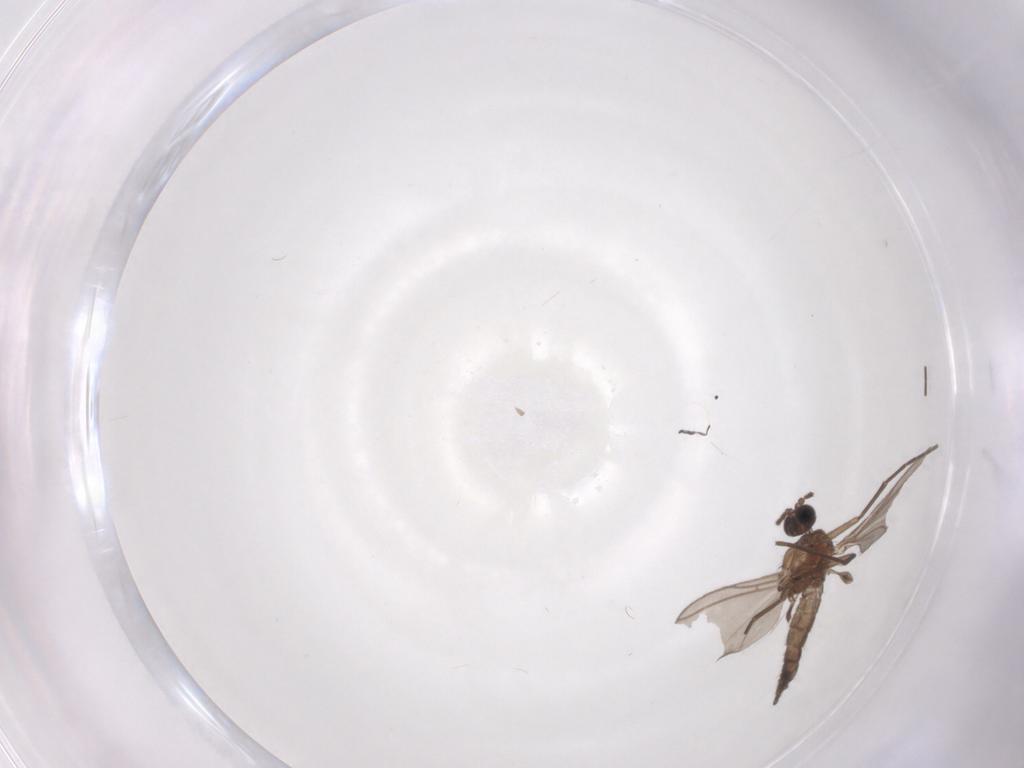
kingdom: Animalia
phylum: Arthropoda
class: Insecta
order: Diptera
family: Chironomidae
